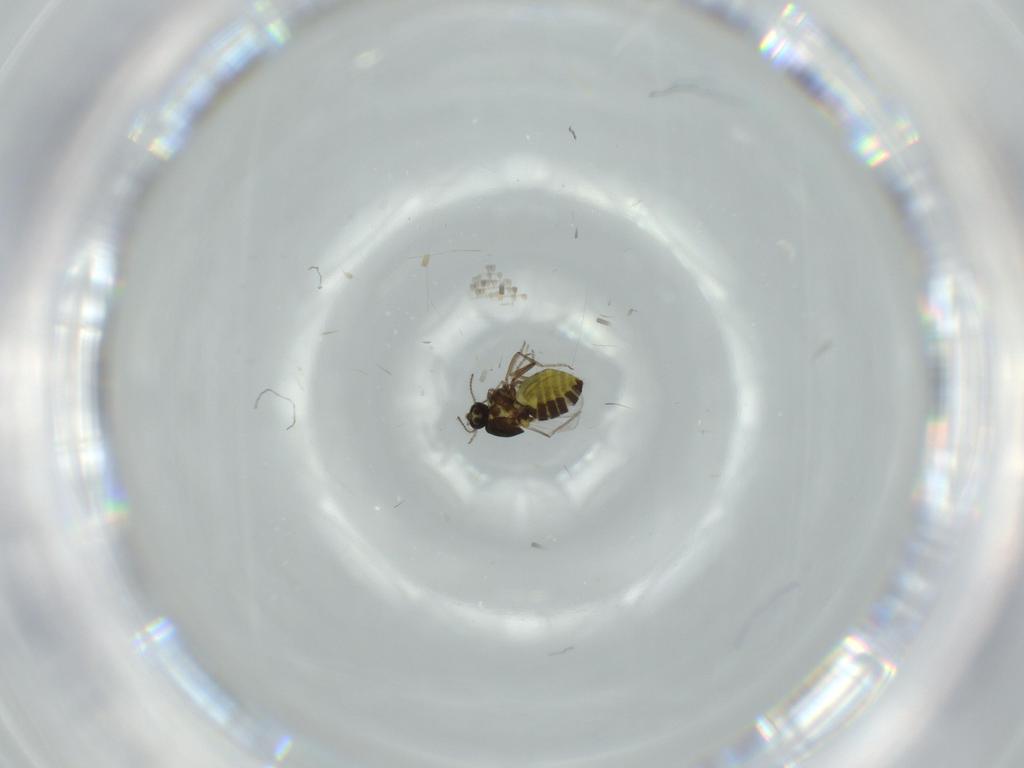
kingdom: Animalia
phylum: Arthropoda
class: Insecta
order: Diptera
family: Ceratopogonidae
